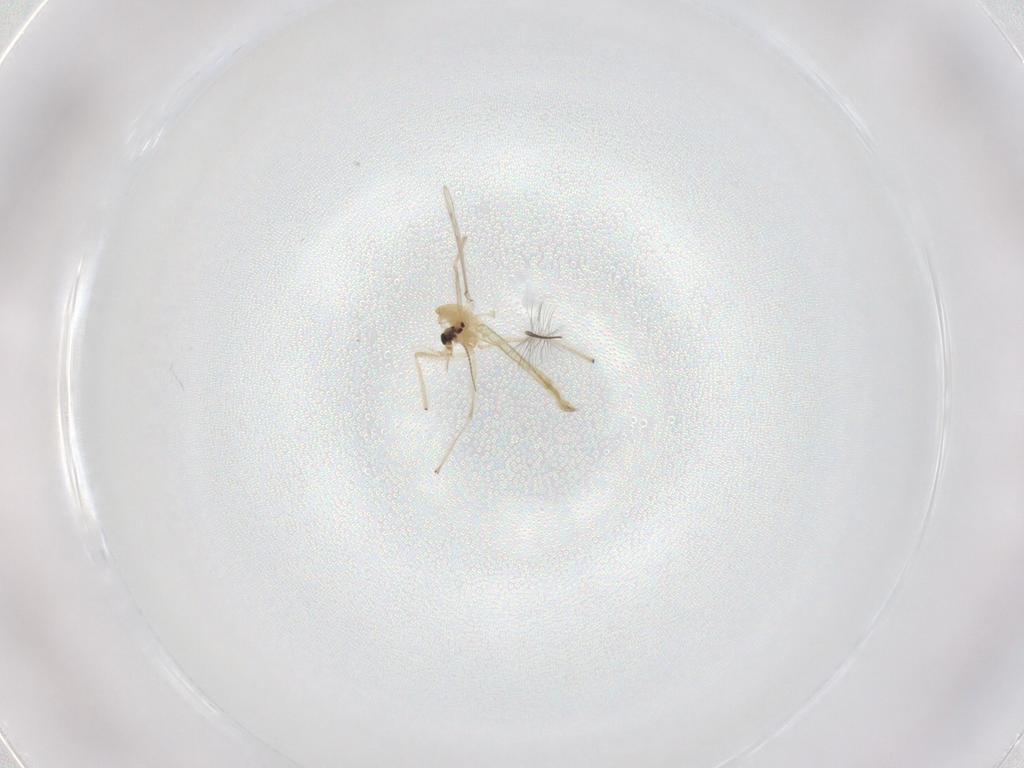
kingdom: Animalia
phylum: Arthropoda
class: Insecta
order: Diptera
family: Chironomidae
